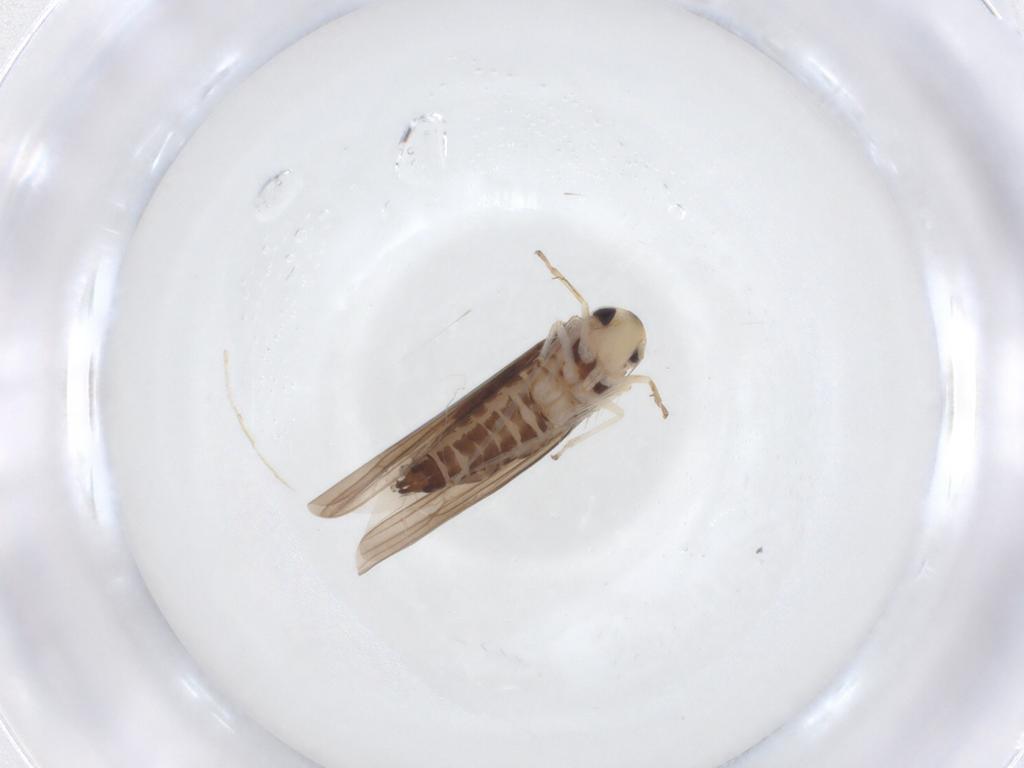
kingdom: Animalia
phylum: Arthropoda
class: Insecta
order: Hemiptera
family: Cicadellidae
